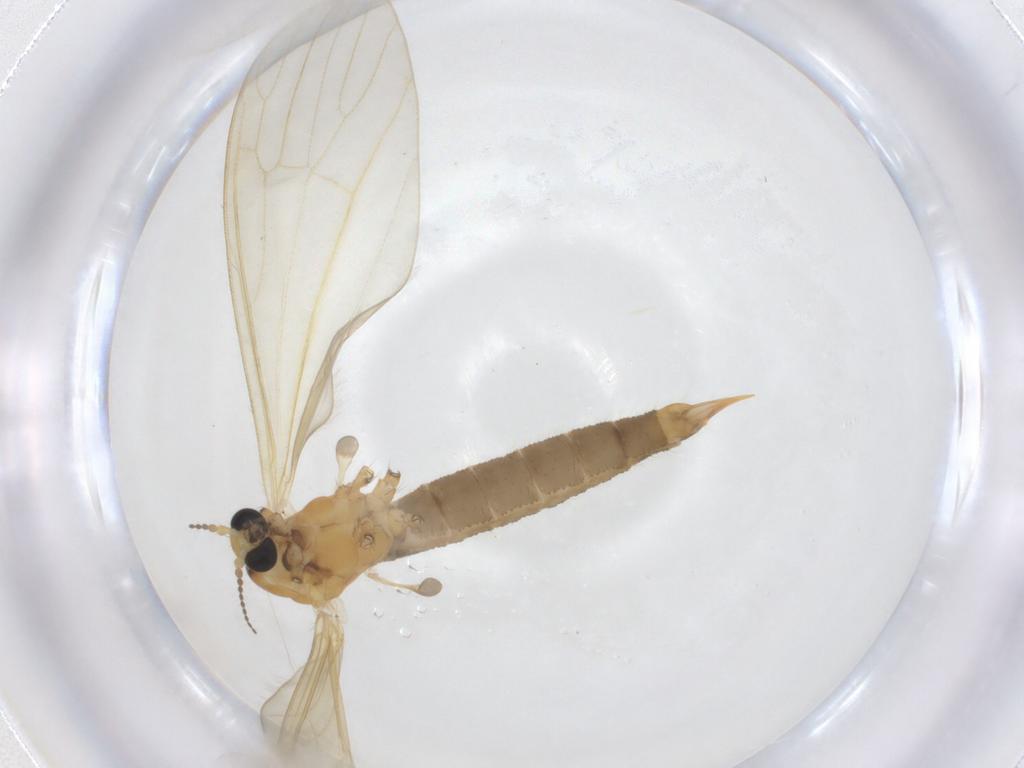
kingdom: Animalia
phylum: Arthropoda
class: Insecta
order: Diptera
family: Limoniidae
